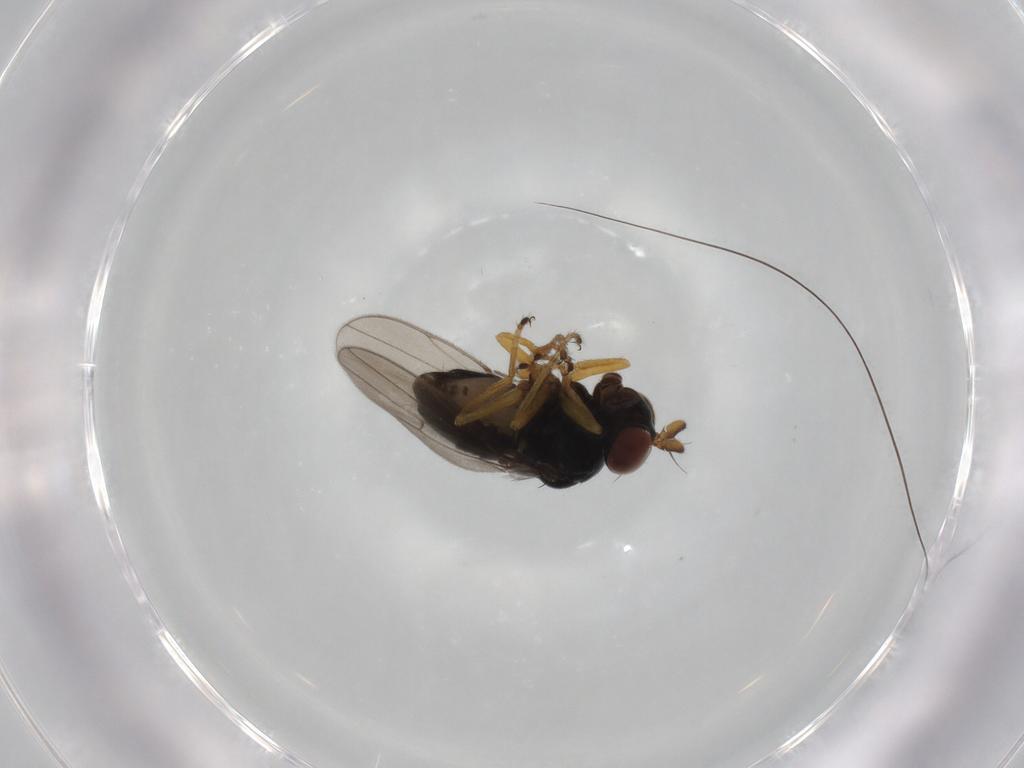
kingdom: Animalia
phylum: Arthropoda
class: Insecta
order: Diptera
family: Ephydridae
